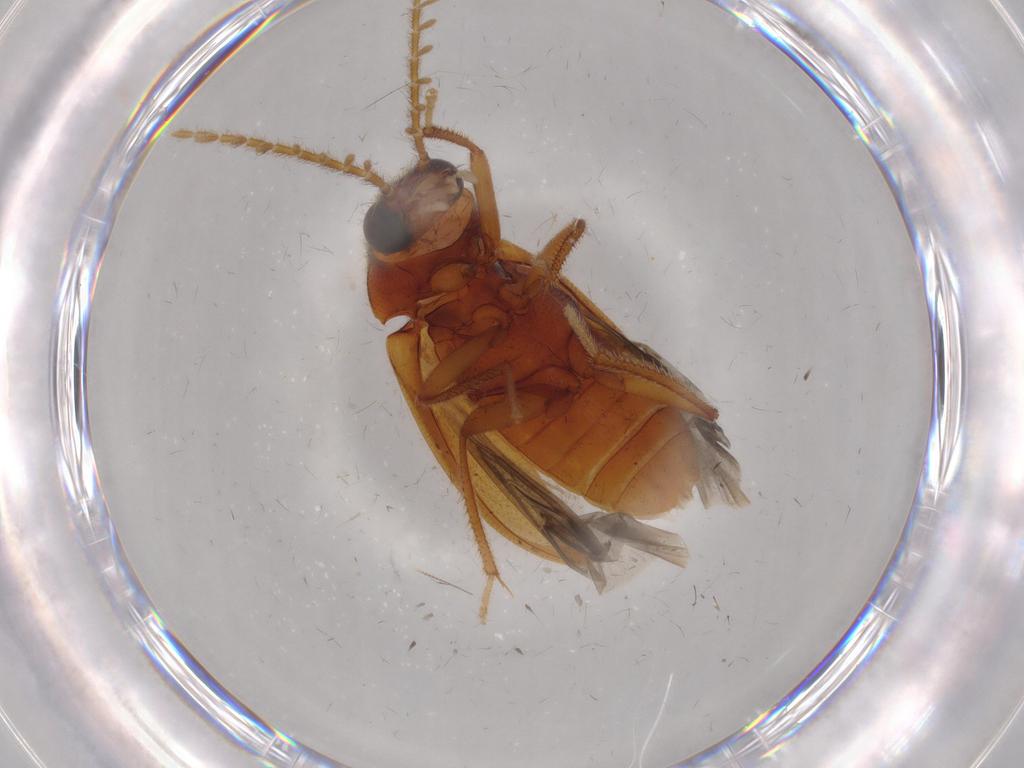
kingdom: Animalia
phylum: Arthropoda
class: Insecta
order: Coleoptera
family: Ptilodactylidae
